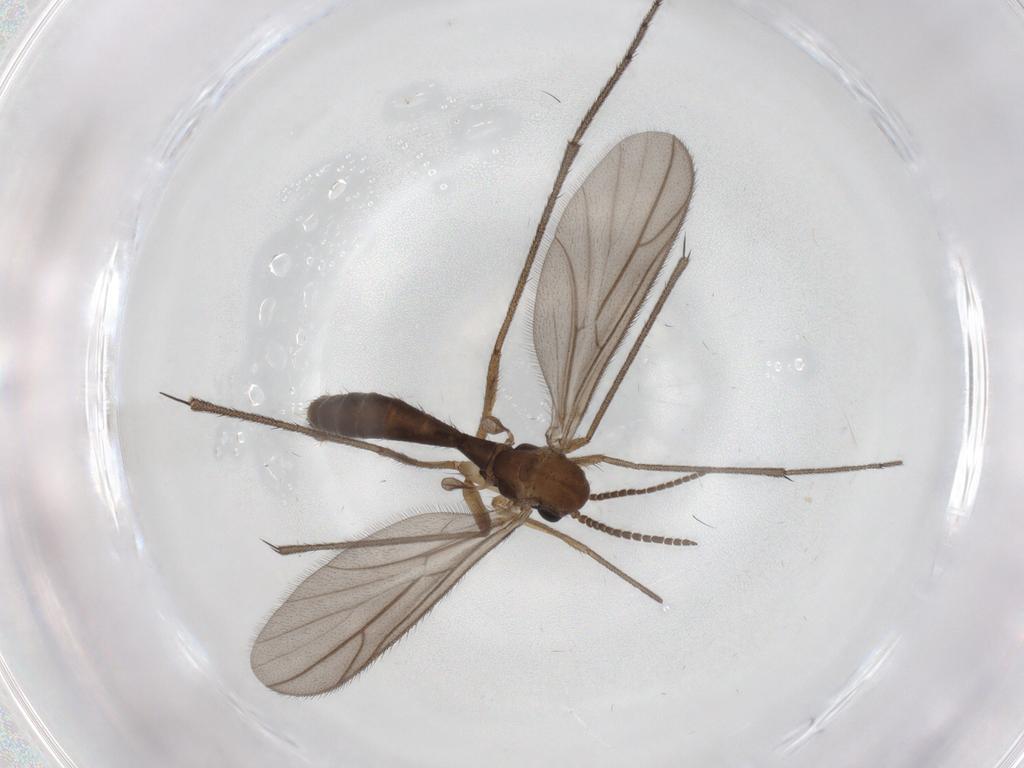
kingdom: Animalia
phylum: Arthropoda
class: Insecta
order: Diptera
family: Ditomyiidae
